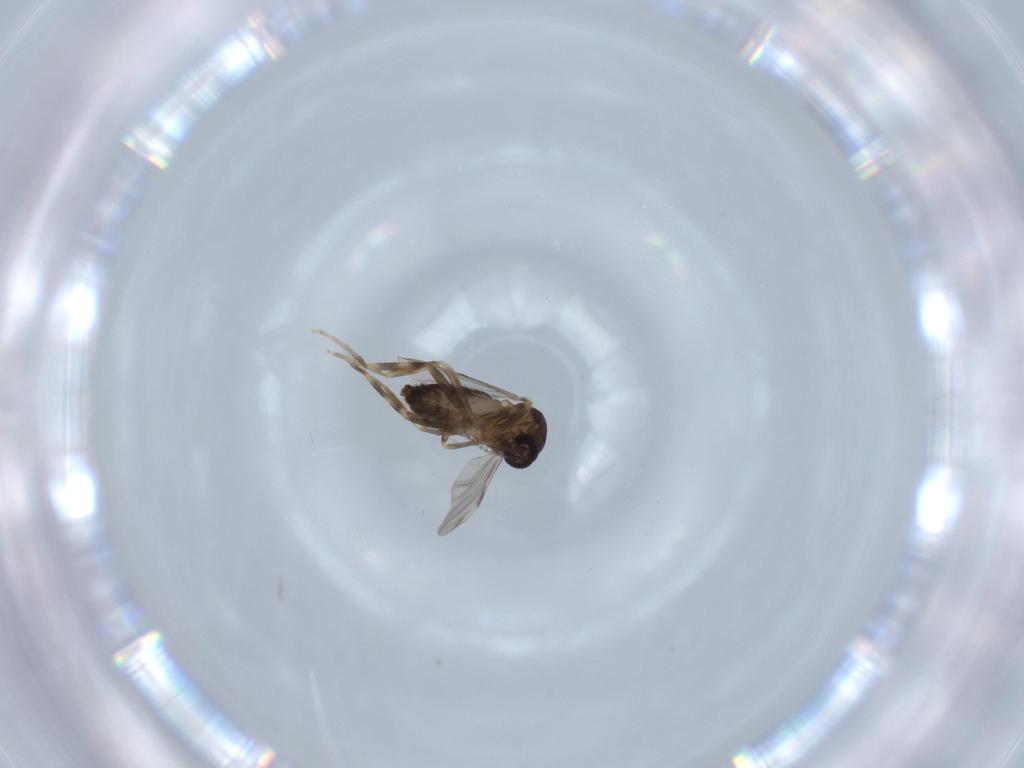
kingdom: Animalia
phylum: Arthropoda
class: Insecta
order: Diptera
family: Ceratopogonidae
